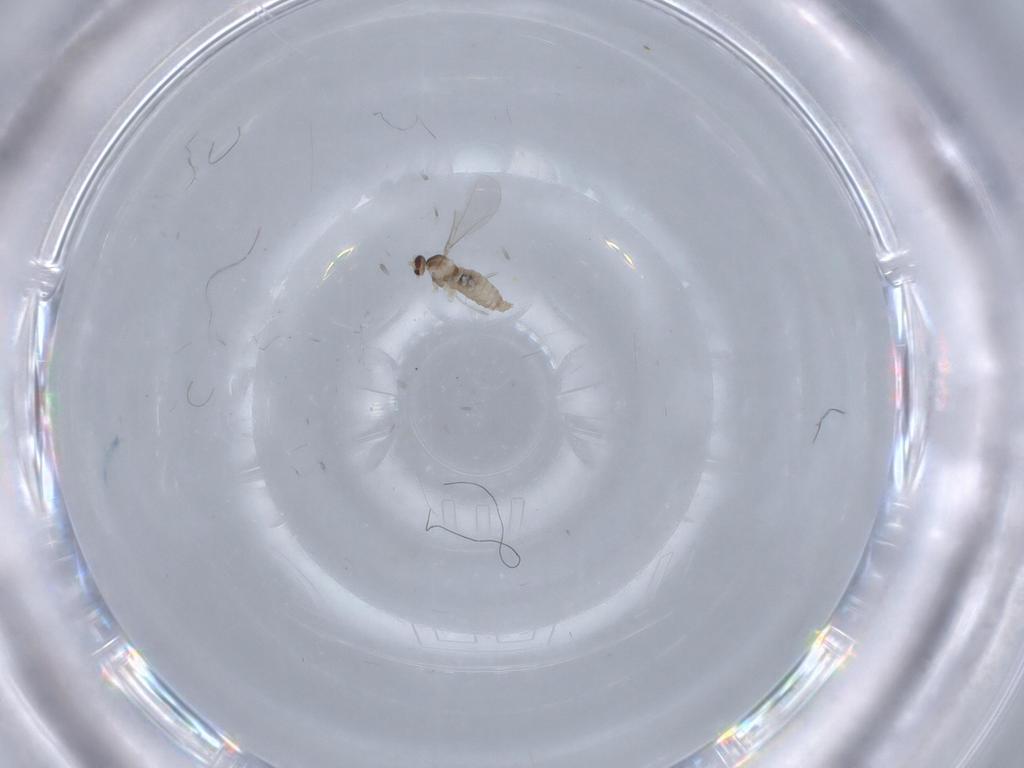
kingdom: Animalia
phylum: Arthropoda
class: Insecta
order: Diptera
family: Cecidomyiidae
